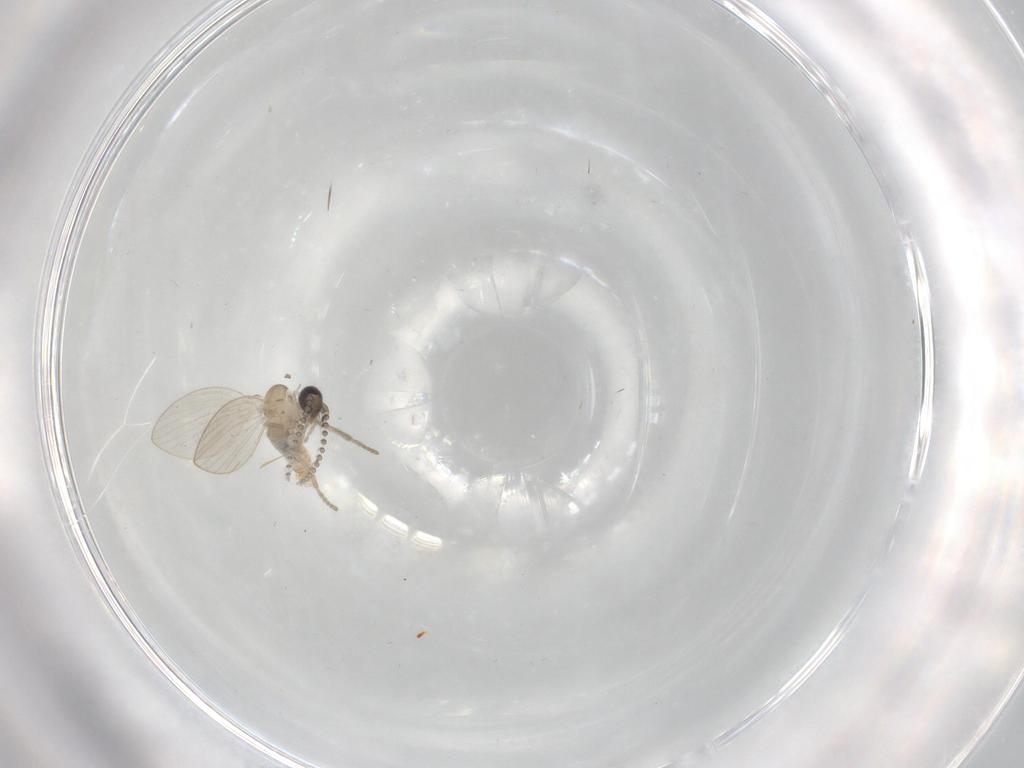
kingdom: Animalia
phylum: Arthropoda
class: Insecta
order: Diptera
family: Psychodidae
